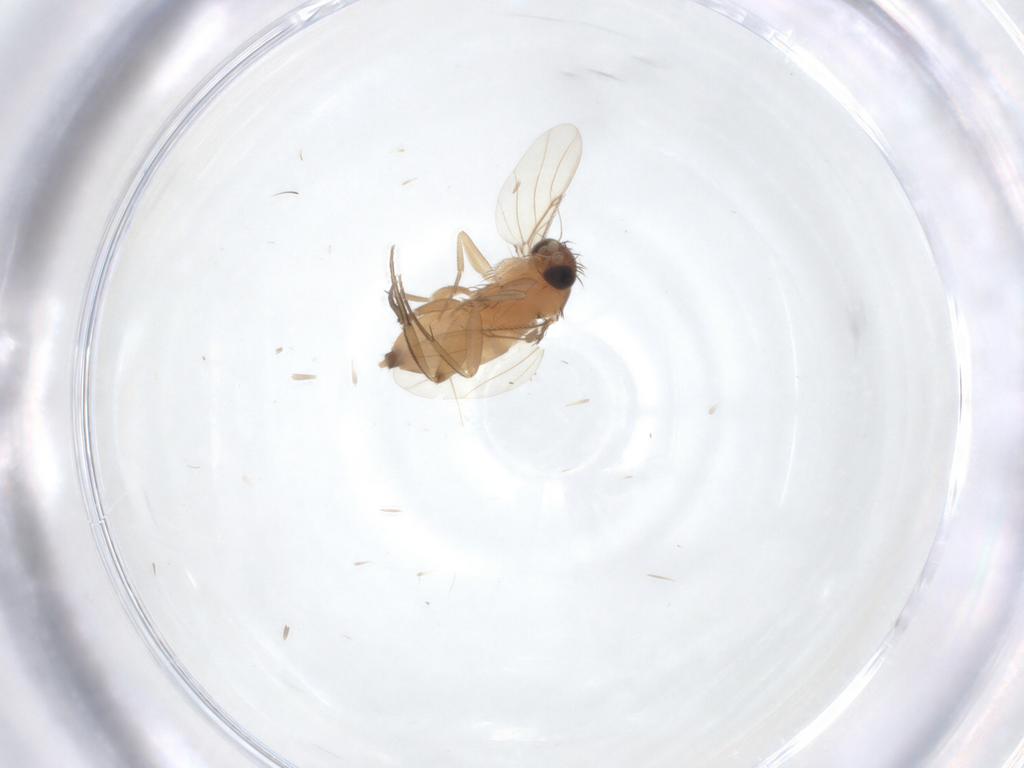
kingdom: Animalia
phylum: Arthropoda
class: Insecta
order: Diptera
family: Phoridae
